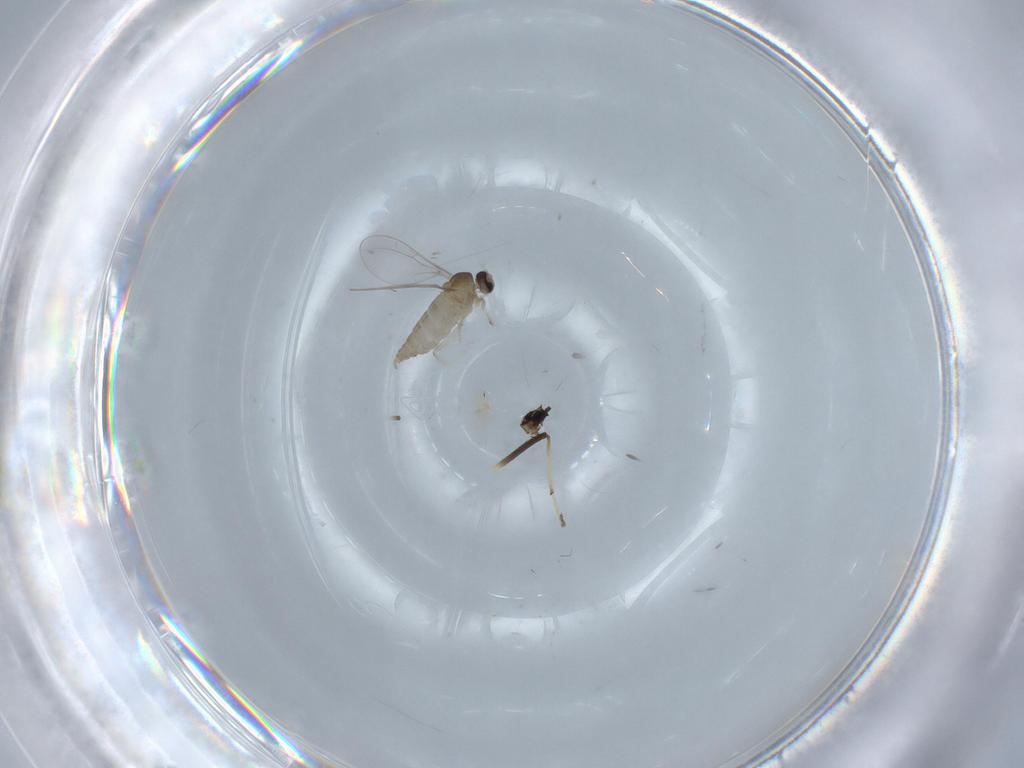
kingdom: Animalia
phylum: Arthropoda
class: Insecta
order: Diptera
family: Cecidomyiidae
